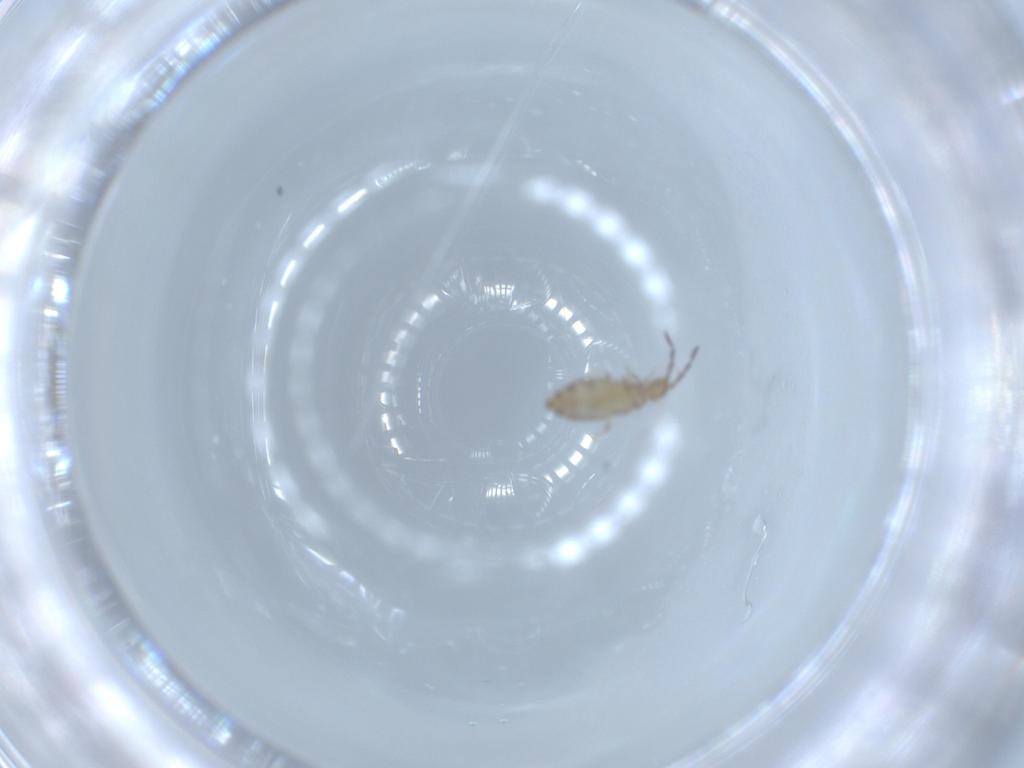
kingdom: Animalia
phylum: Arthropoda
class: Collembola
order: Entomobryomorpha
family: Entomobryidae
